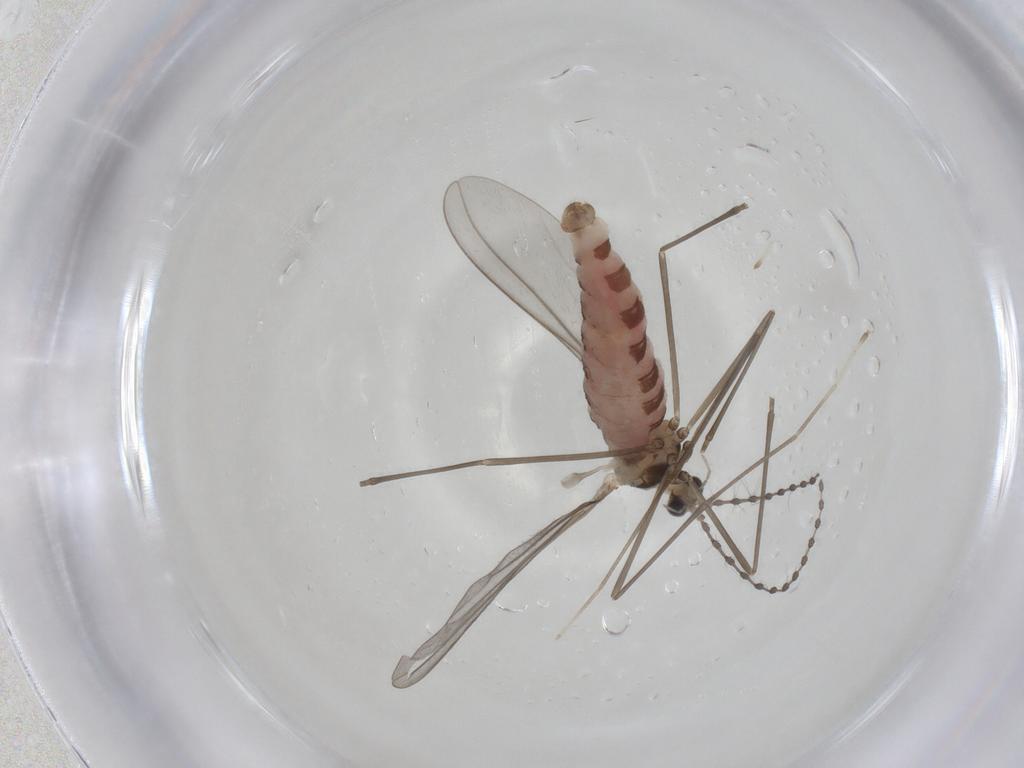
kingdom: Animalia
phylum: Arthropoda
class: Insecta
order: Diptera
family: Cecidomyiidae
